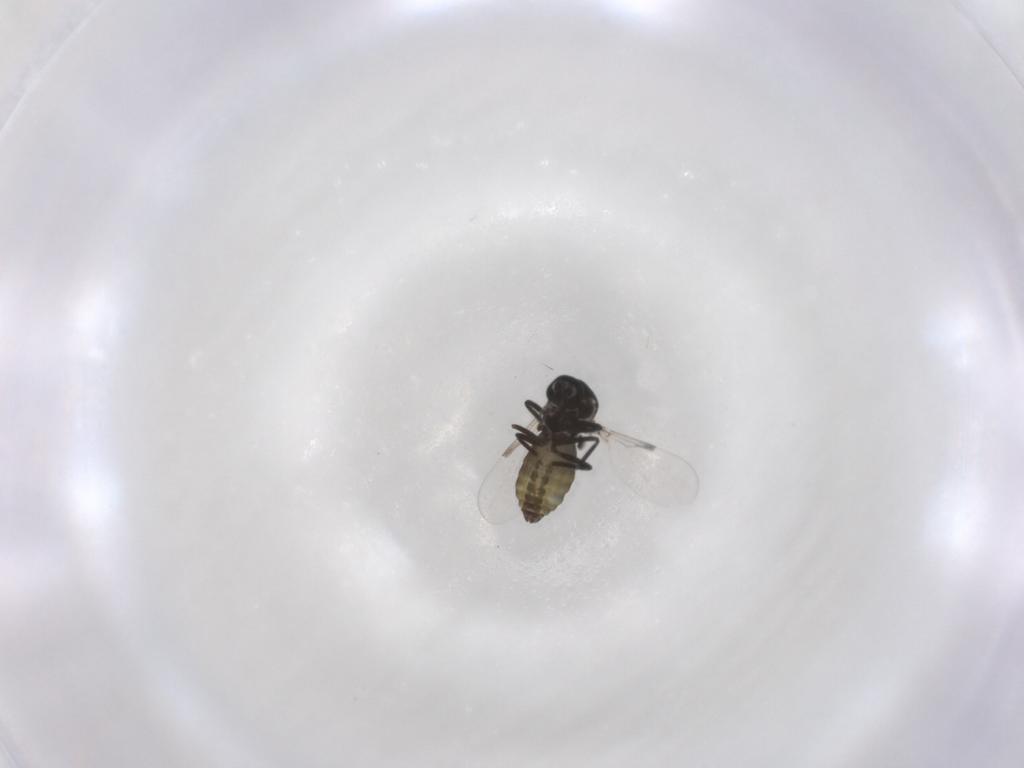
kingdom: Animalia
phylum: Arthropoda
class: Insecta
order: Diptera
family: Ceratopogonidae
